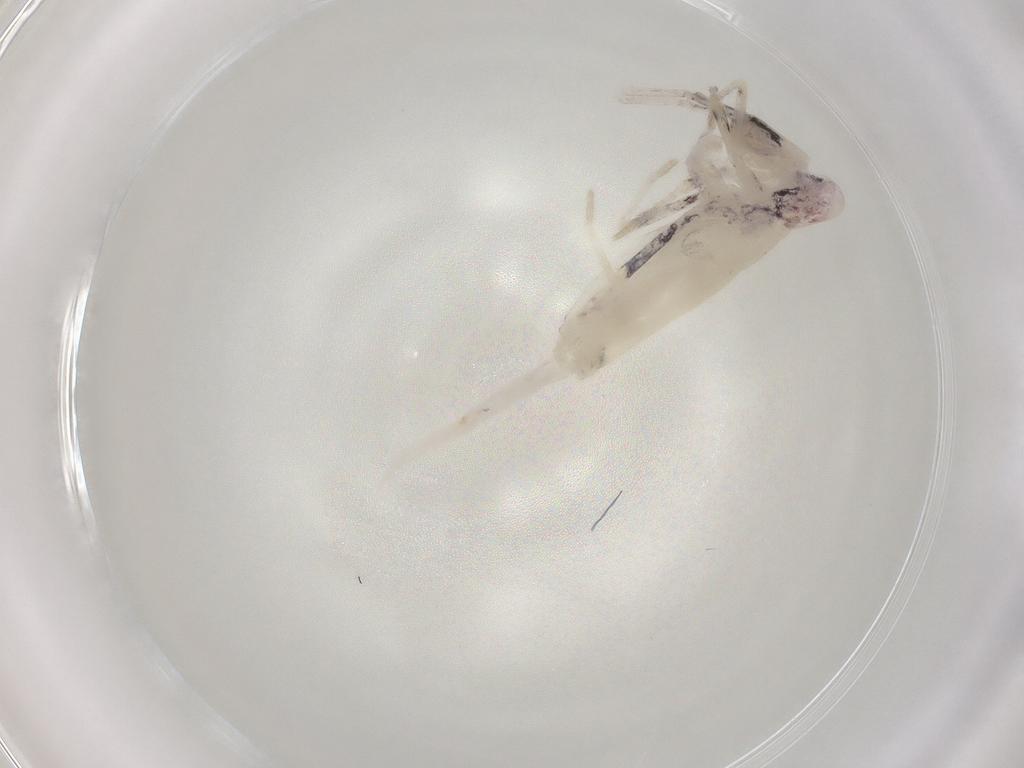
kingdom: Animalia
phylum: Arthropoda
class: Collembola
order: Entomobryomorpha
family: Entomobryidae
